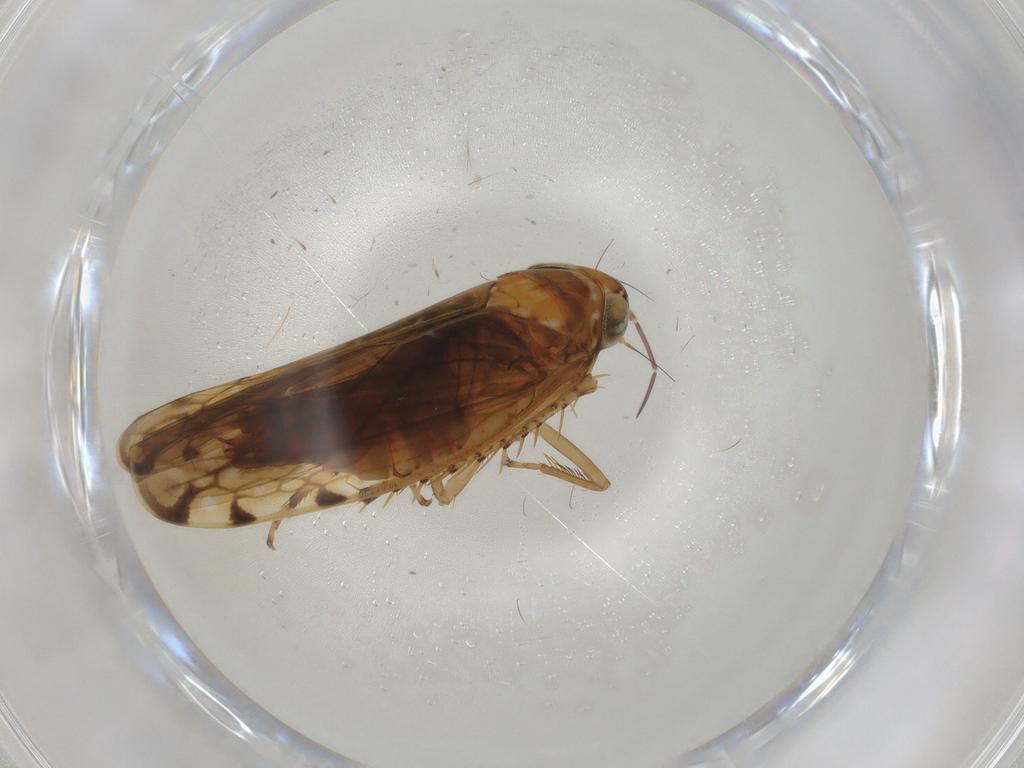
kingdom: Animalia
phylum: Arthropoda
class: Insecta
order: Hemiptera
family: Cicadellidae
